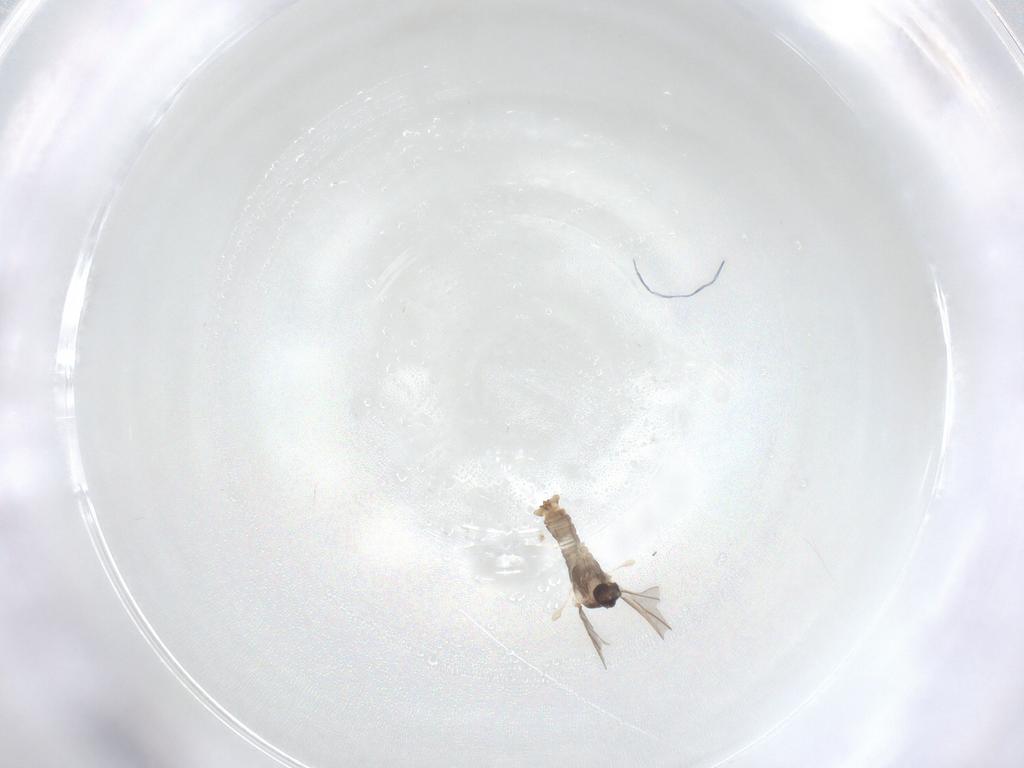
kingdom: Animalia
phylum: Arthropoda
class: Insecta
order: Diptera
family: Cecidomyiidae
